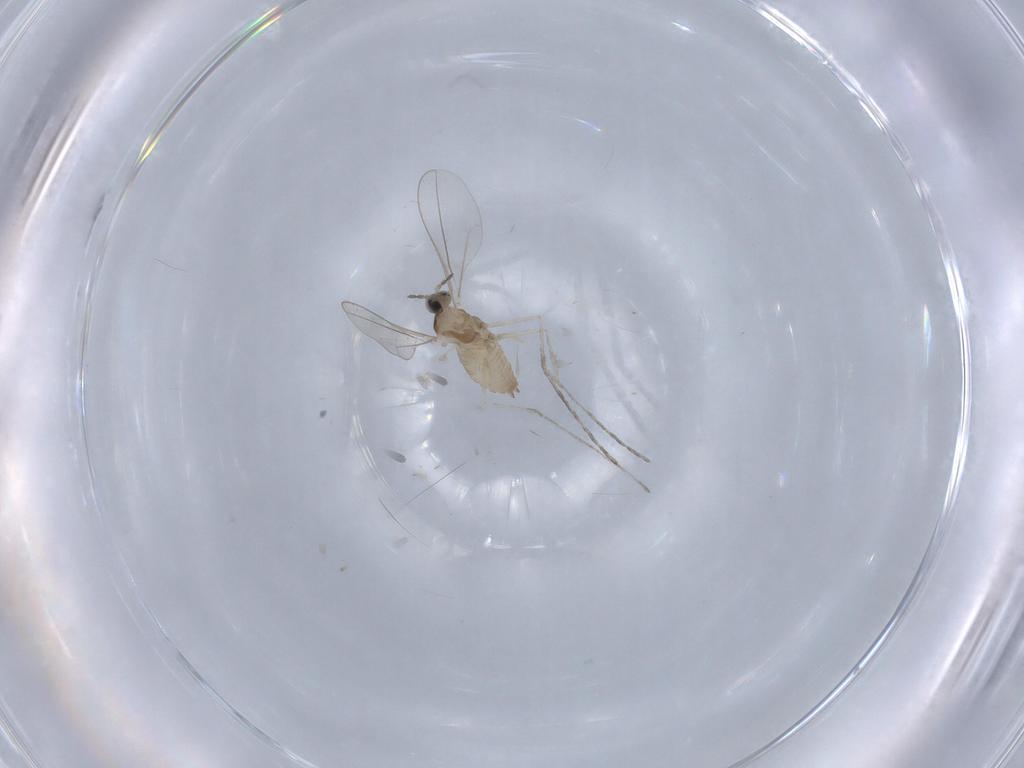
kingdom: Animalia
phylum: Arthropoda
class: Insecta
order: Diptera
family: Cecidomyiidae
